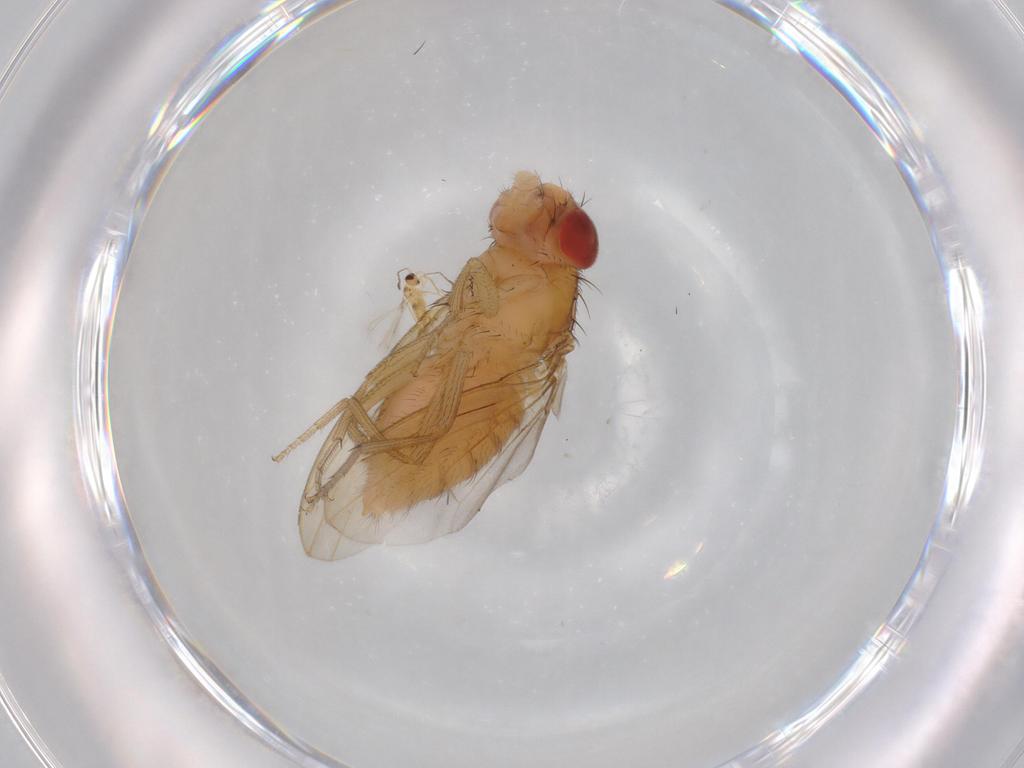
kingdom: Animalia
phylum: Arthropoda
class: Insecta
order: Diptera
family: Drosophilidae
